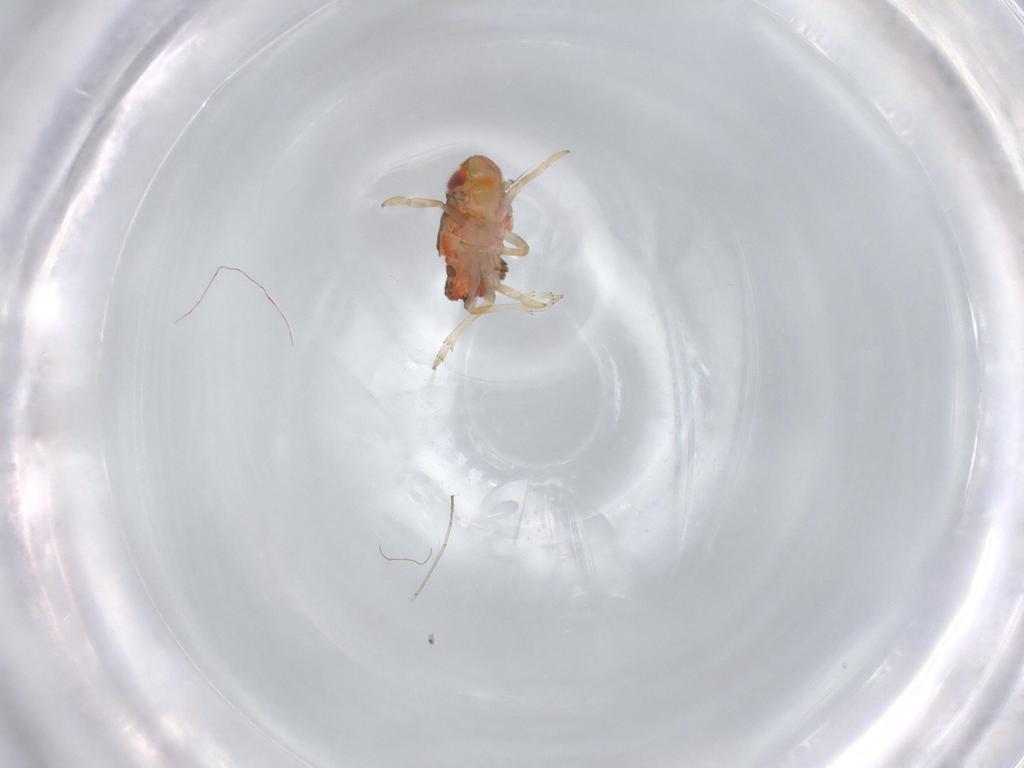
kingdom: Animalia
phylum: Arthropoda
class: Insecta
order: Hemiptera
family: Issidae
